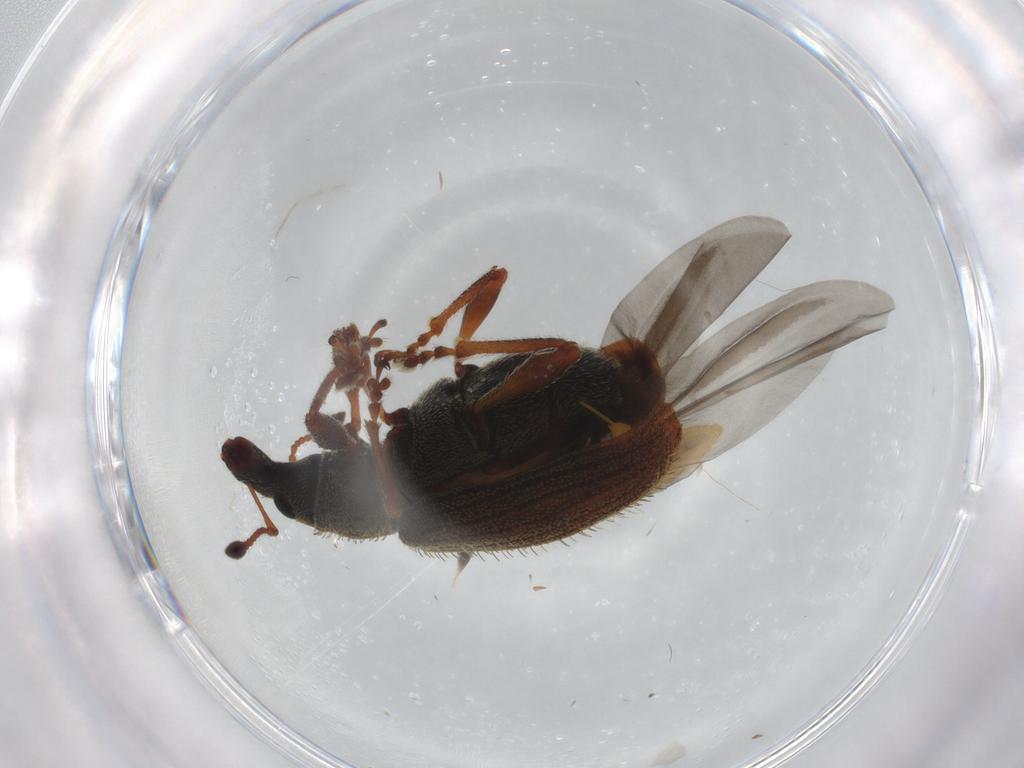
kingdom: Animalia
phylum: Arthropoda
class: Insecta
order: Coleoptera
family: Curculionidae
